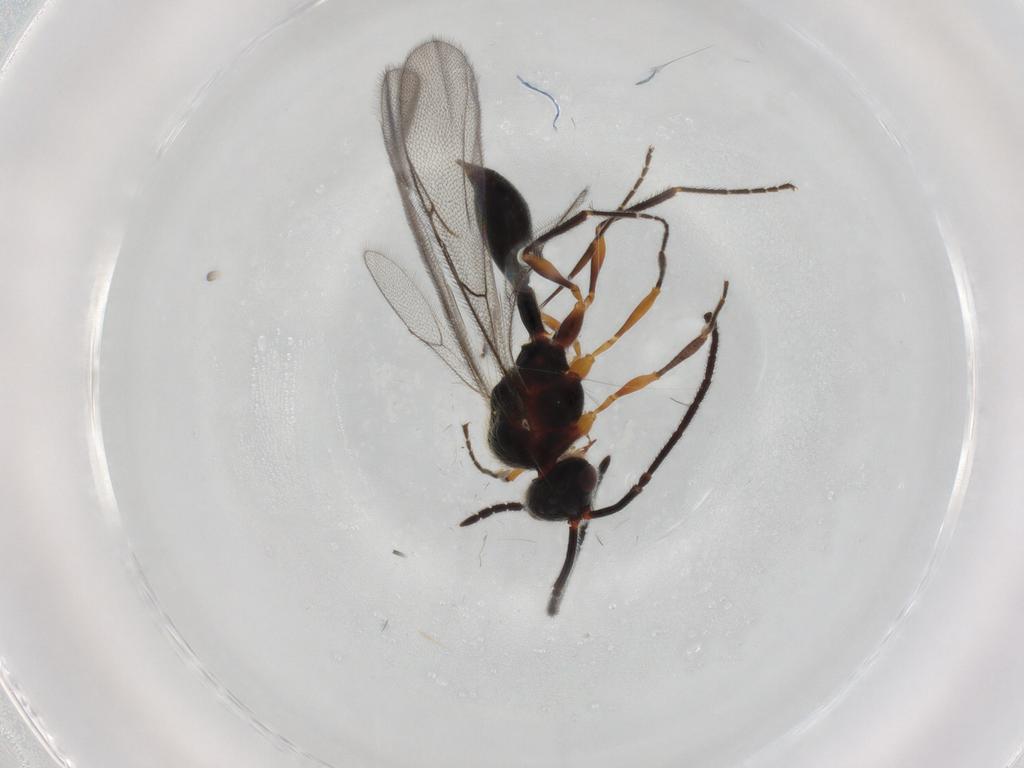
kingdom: Animalia
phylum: Arthropoda
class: Insecta
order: Hymenoptera
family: Diapriidae
